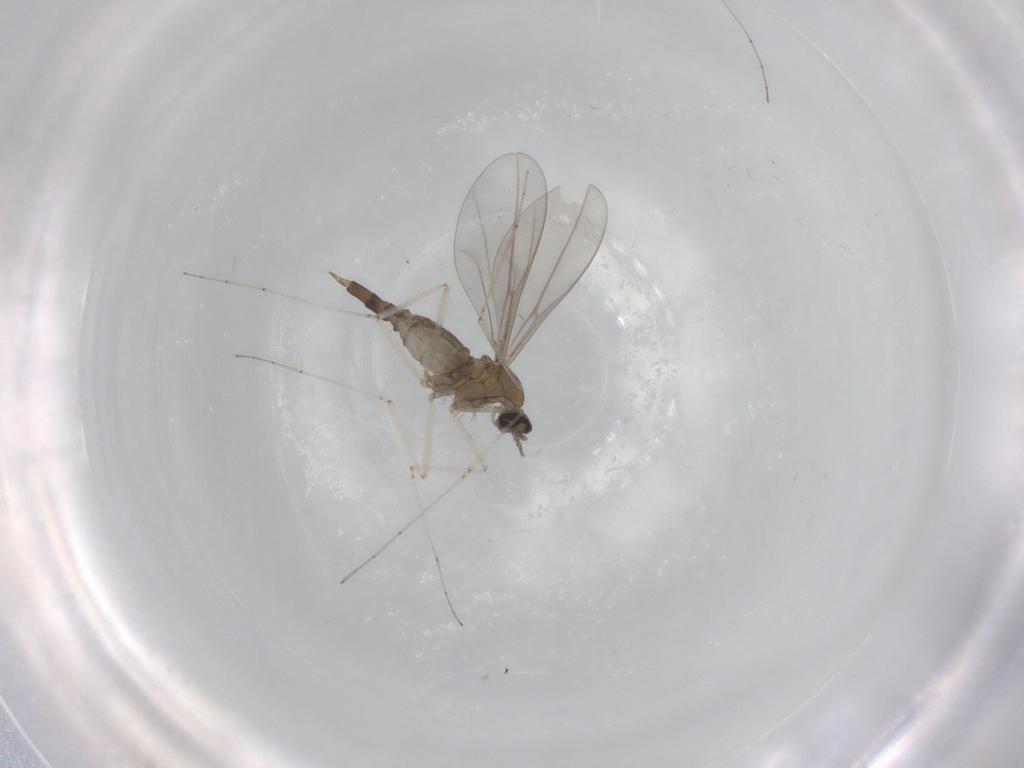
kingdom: Animalia
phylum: Arthropoda
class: Insecta
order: Diptera
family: Cecidomyiidae
